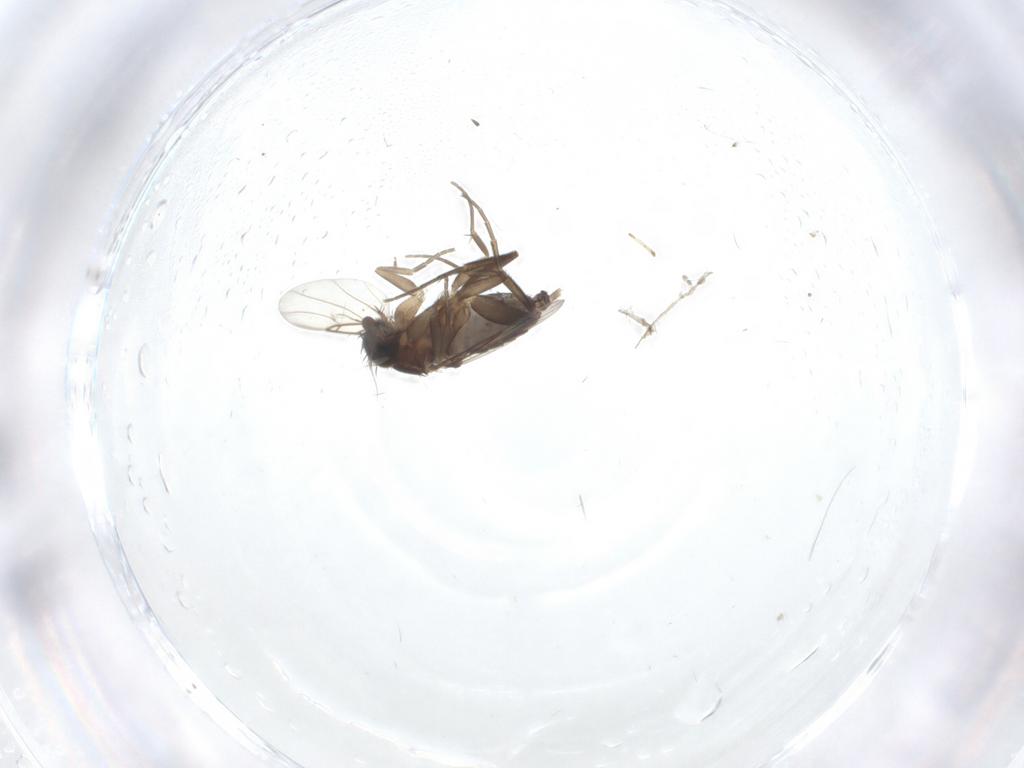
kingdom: Animalia
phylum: Arthropoda
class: Insecta
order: Diptera
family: Phoridae
